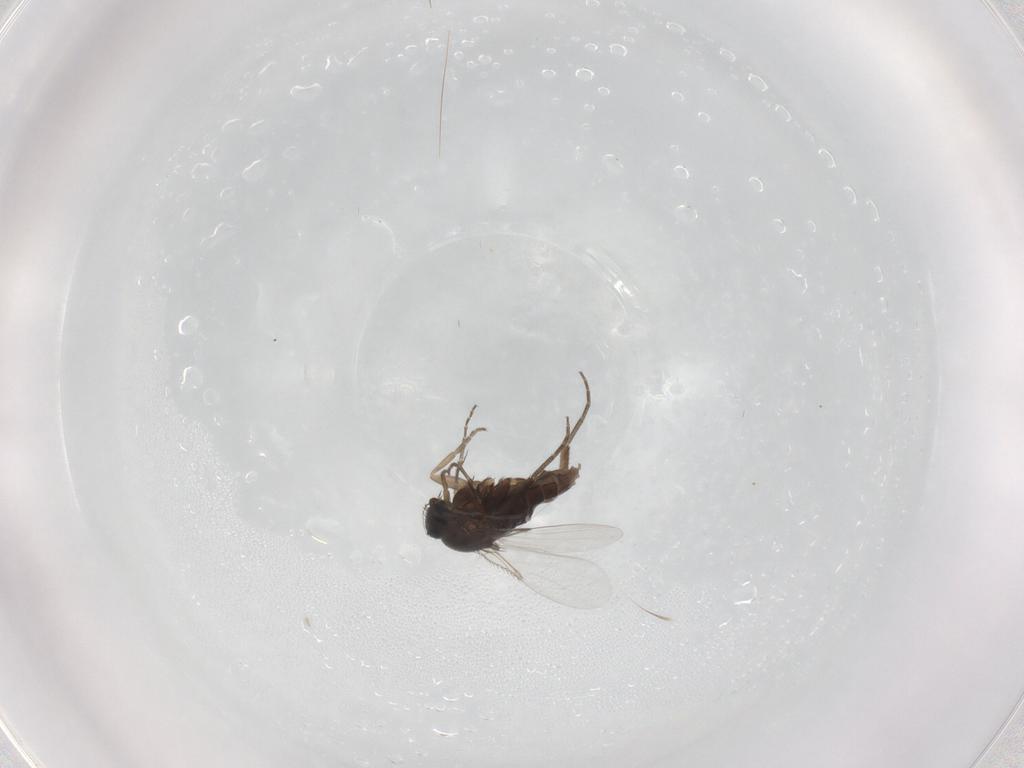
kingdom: Animalia
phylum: Arthropoda
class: Insecta
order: Diptera
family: Phoridae
